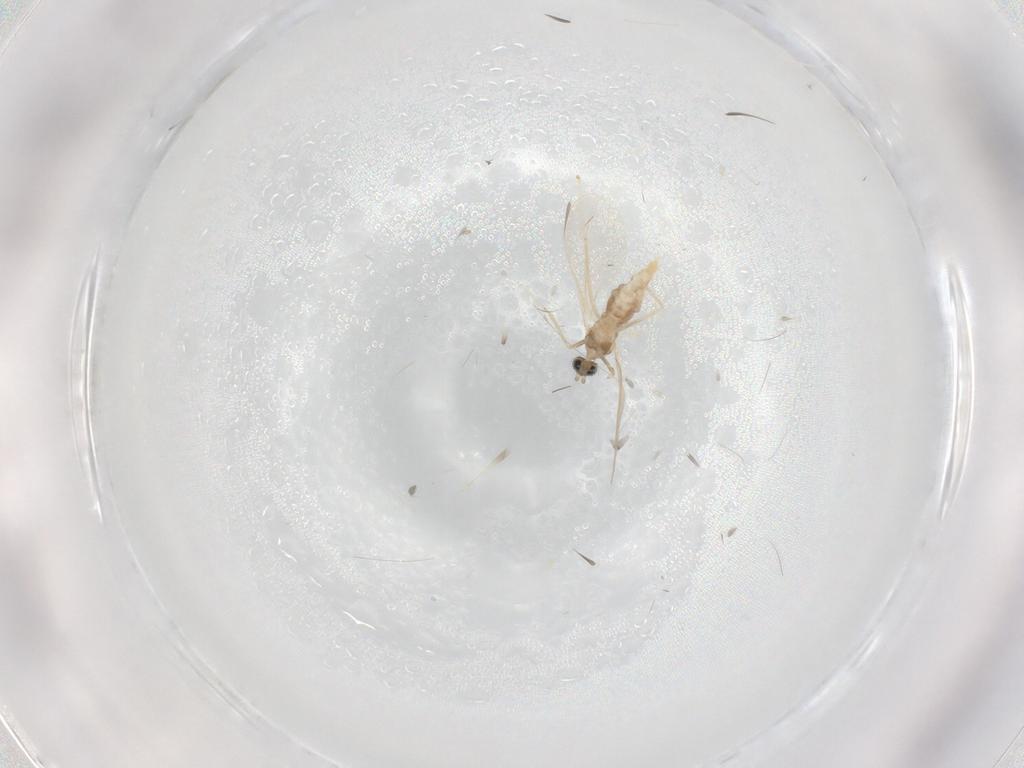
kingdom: Animalia
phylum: Arthropoda
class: Insecta
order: Diptera
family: Cecidomyiidae
